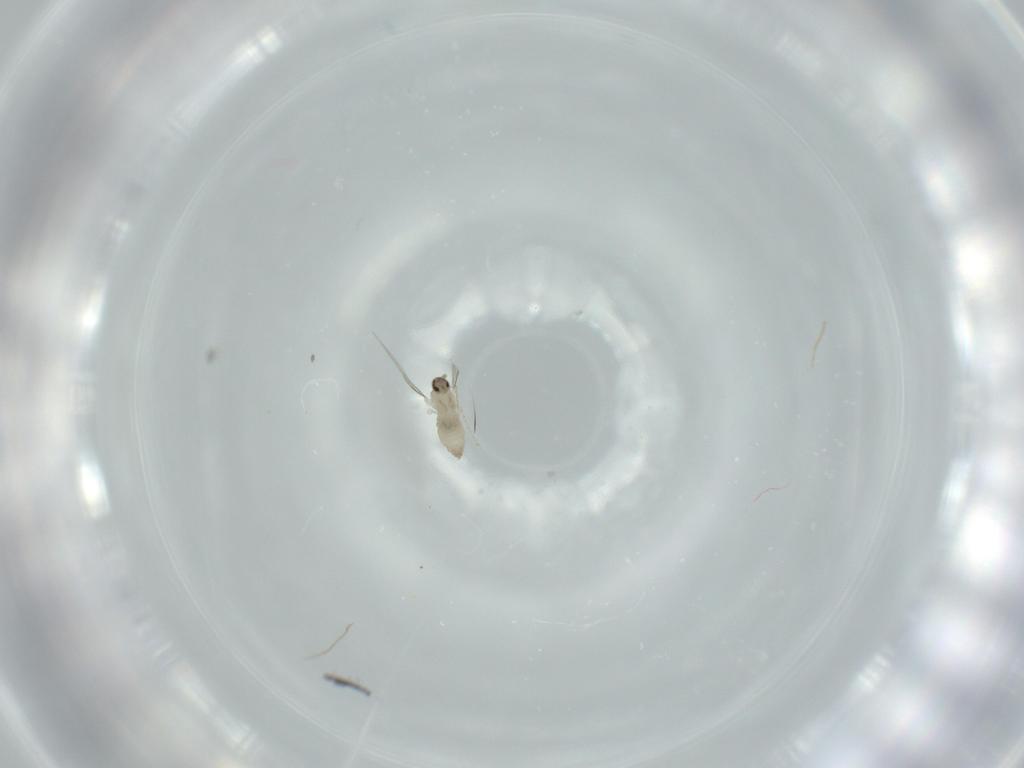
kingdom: Animalia
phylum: Arthropoda
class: Insecta
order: Diptera
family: Cecidomyiidae
